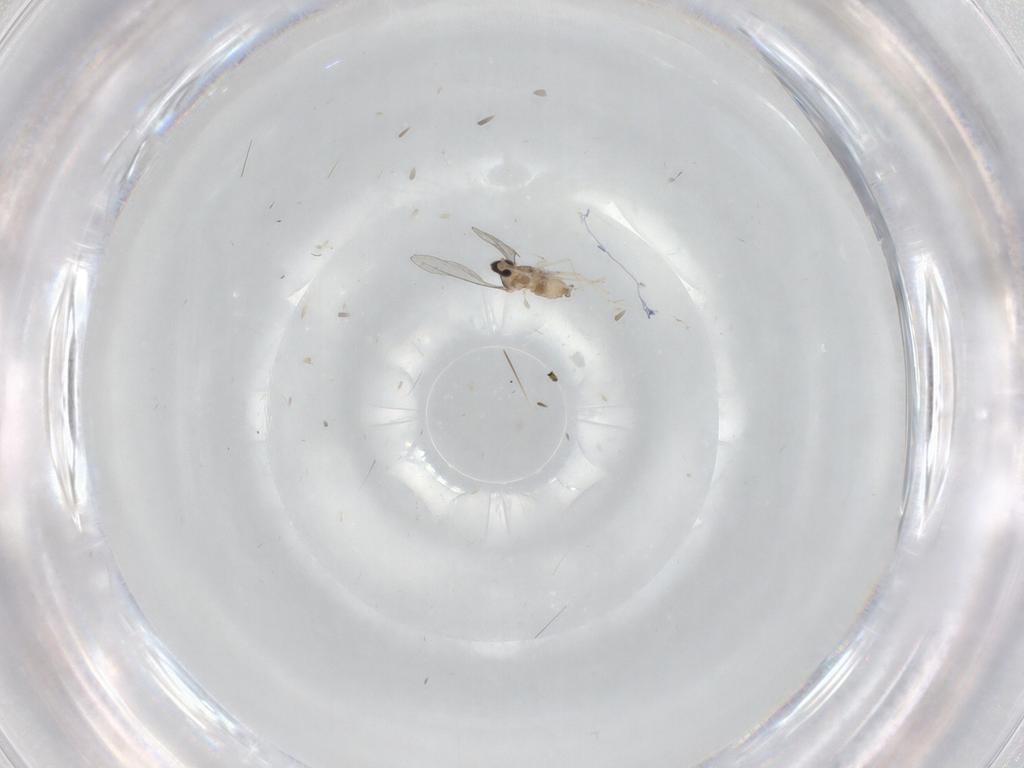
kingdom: Animalia
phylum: Arthropoda
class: Insecta
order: Diptera
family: Cecidomyiidae
